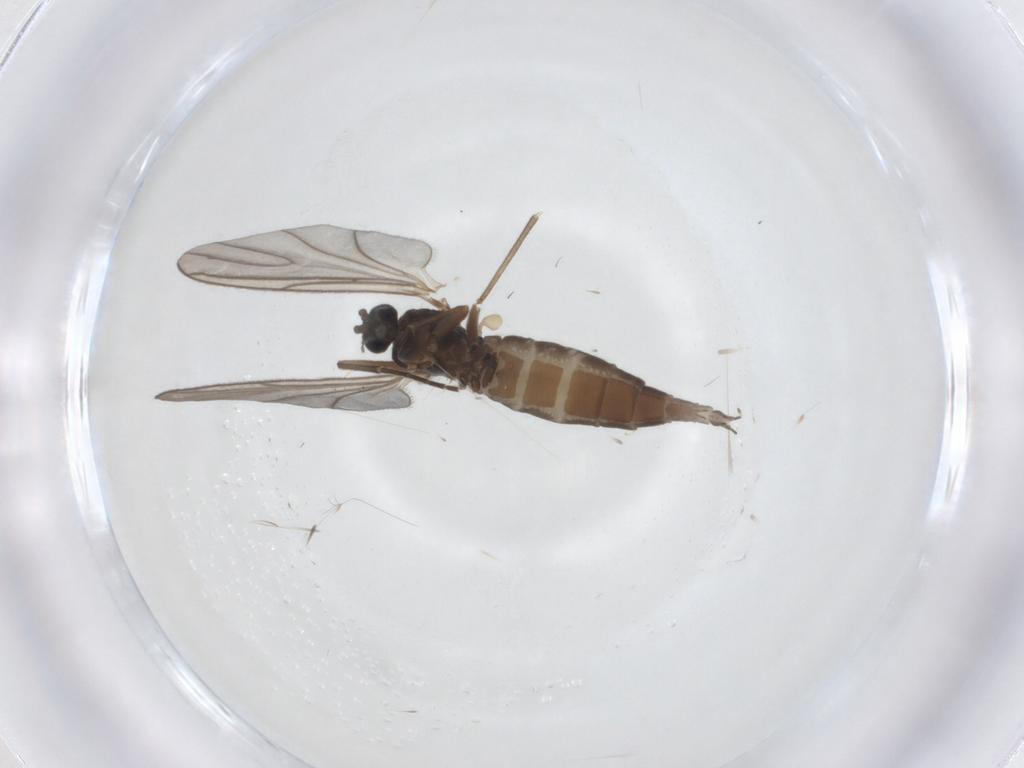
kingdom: Animalia
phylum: Arthropoda
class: Insecta
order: Diptera
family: Sciaridae
